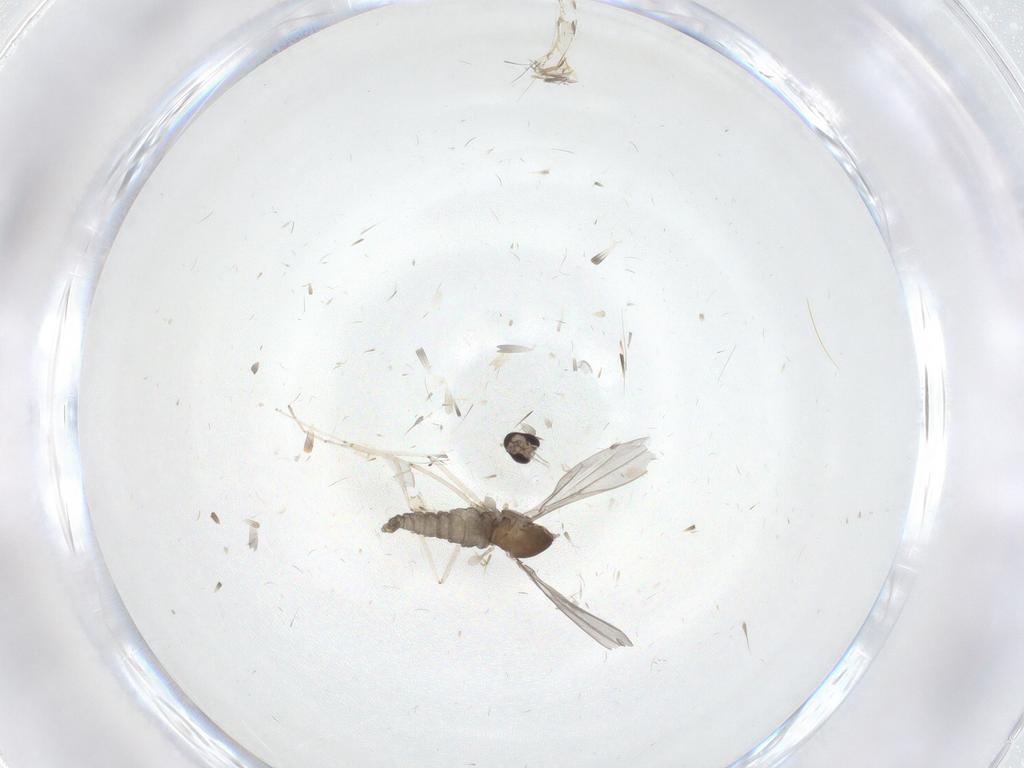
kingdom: Animalia
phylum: Arthropoda
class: Insecta
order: Diptera
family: Cecidomyiidae
